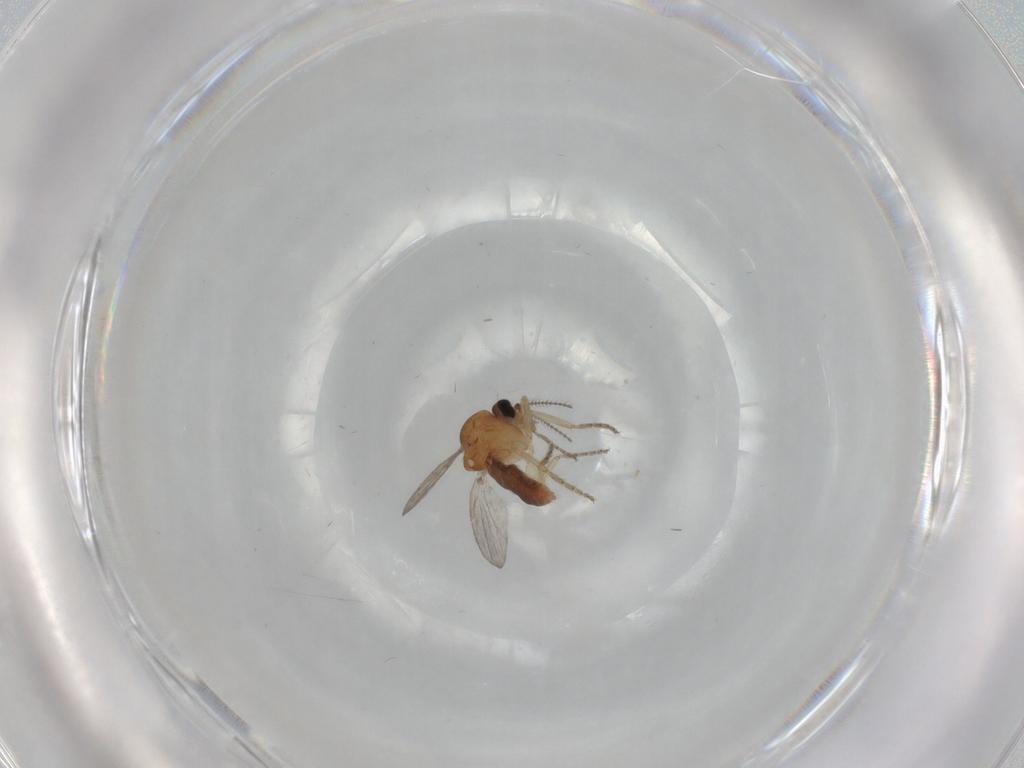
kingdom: Animalia
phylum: Arthropoda
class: Insecta
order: Diptera
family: Ceratopogonidae
